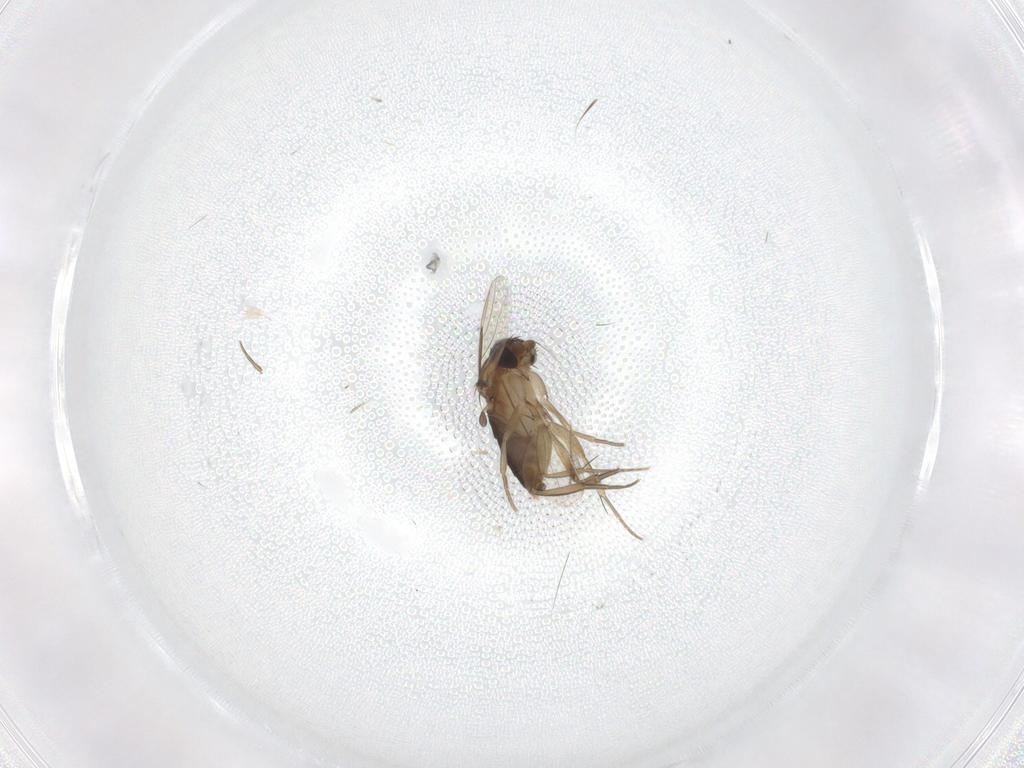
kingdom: Animalia
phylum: Arthropoda
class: Insecta
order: Diptera
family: Phoridae
